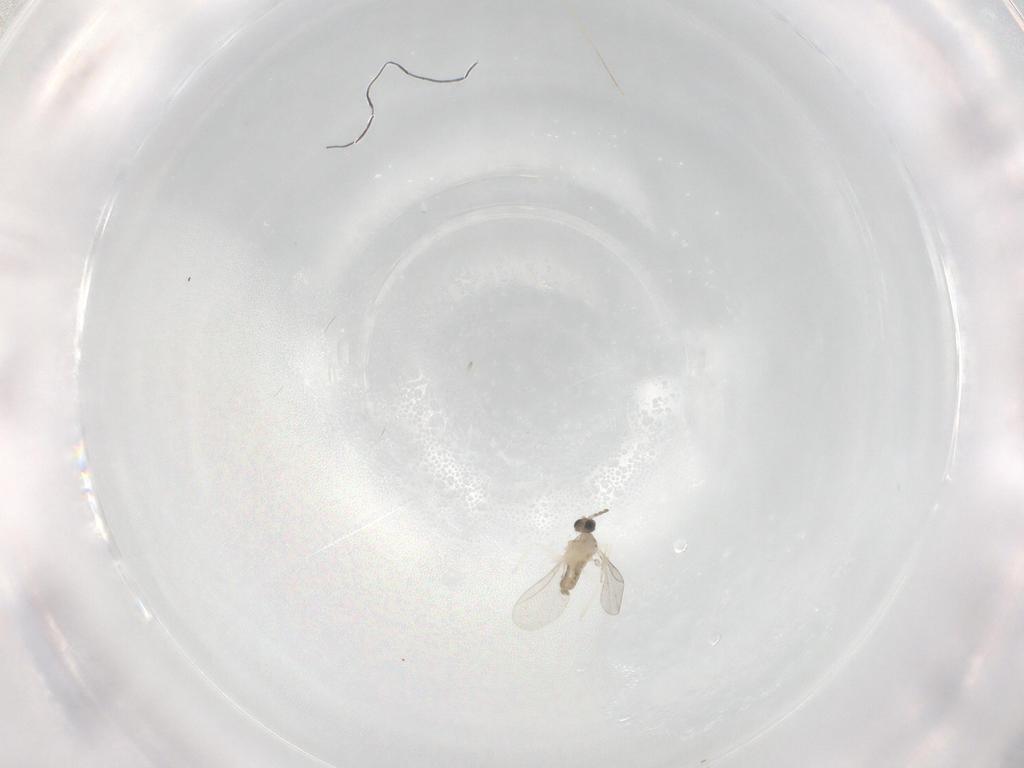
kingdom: Animalia
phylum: Arthropoda
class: Insecta
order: Diptera
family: Cecidomyiidae
